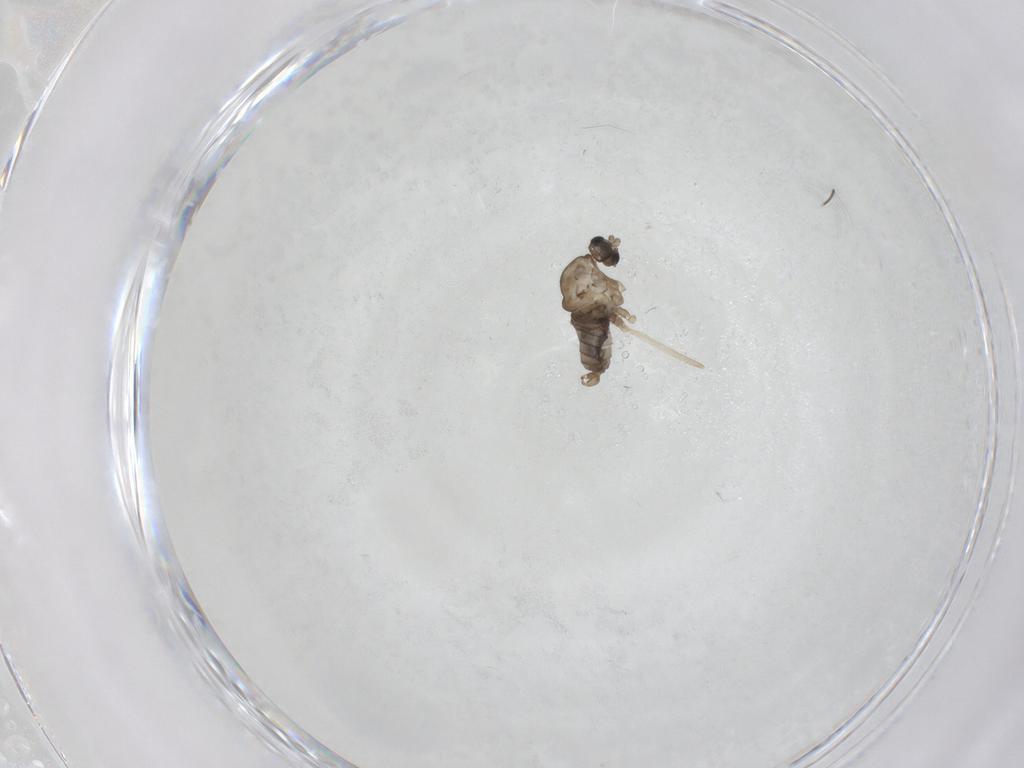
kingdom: Animalia
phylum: Arthropoda
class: Insecta
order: Diptera
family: Cecidomyiidae
